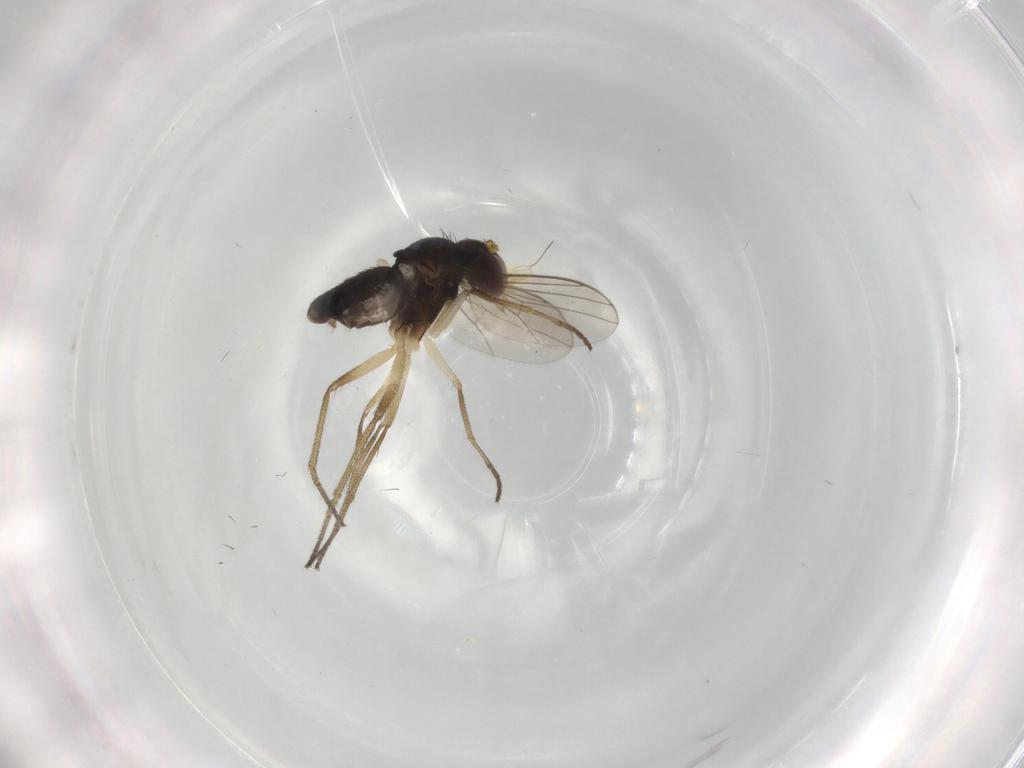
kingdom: Animalia
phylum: Arthropoda
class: Insecta
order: Diptera
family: Dolichopodidae
